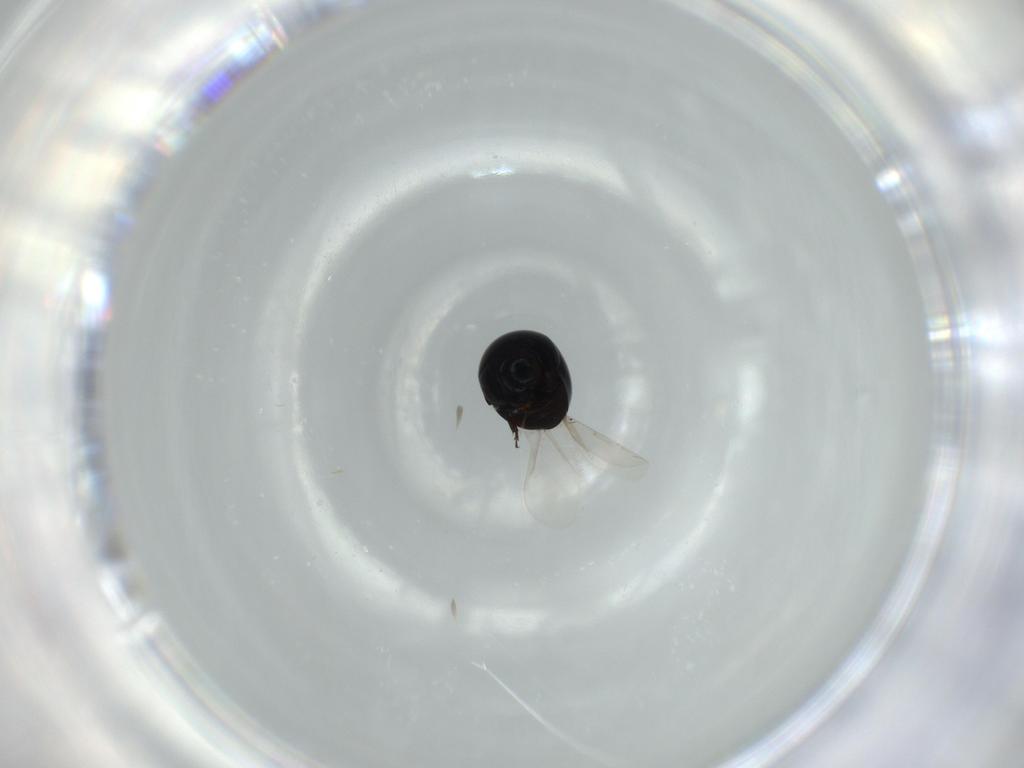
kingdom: Animalia
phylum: Arthropoda
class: Insecta
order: Coleoptera
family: Cybocephalidae
